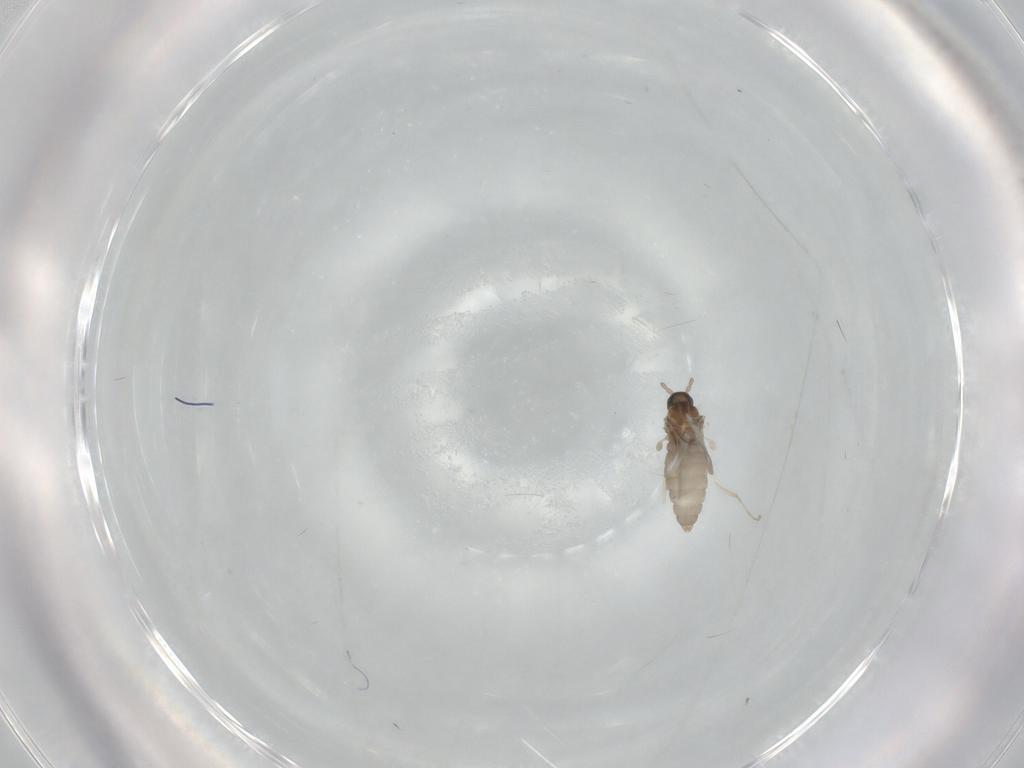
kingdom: Animalia
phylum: Arthropoda
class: Insecta
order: Diptera
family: Cecidomyiidae
